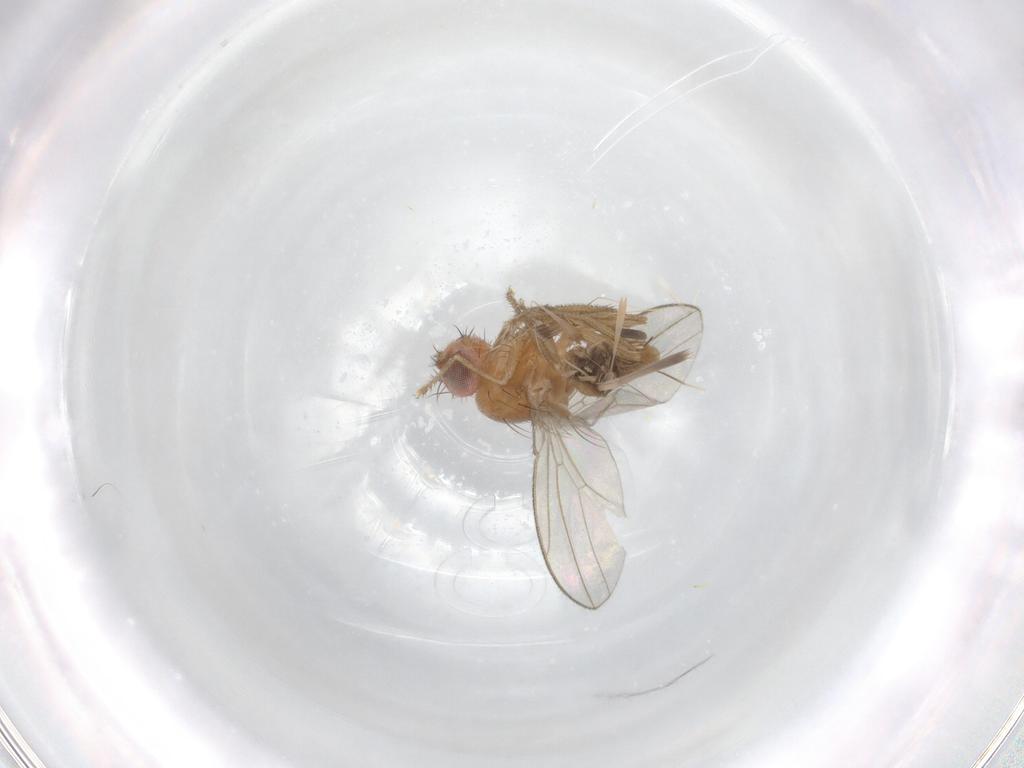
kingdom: Animalia
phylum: Arthropoda
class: Insecta
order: Diptera
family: Drosophilidae
